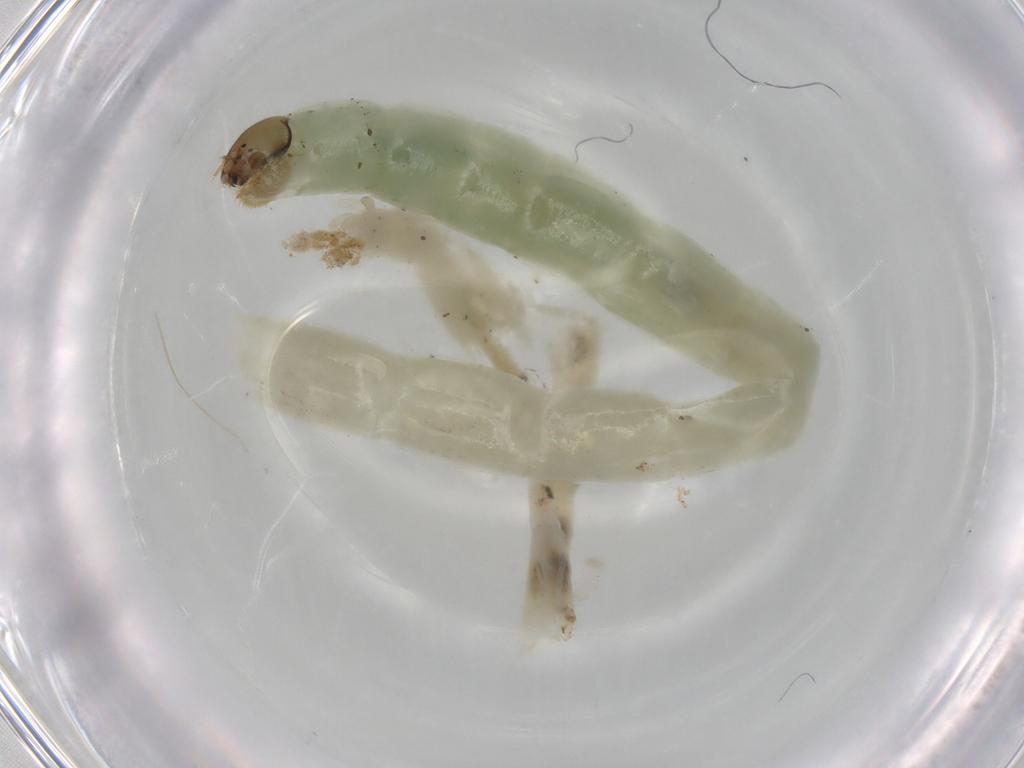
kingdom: Animalia
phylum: Arthropoda
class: Insecta
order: Diptera
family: Chironomidae
